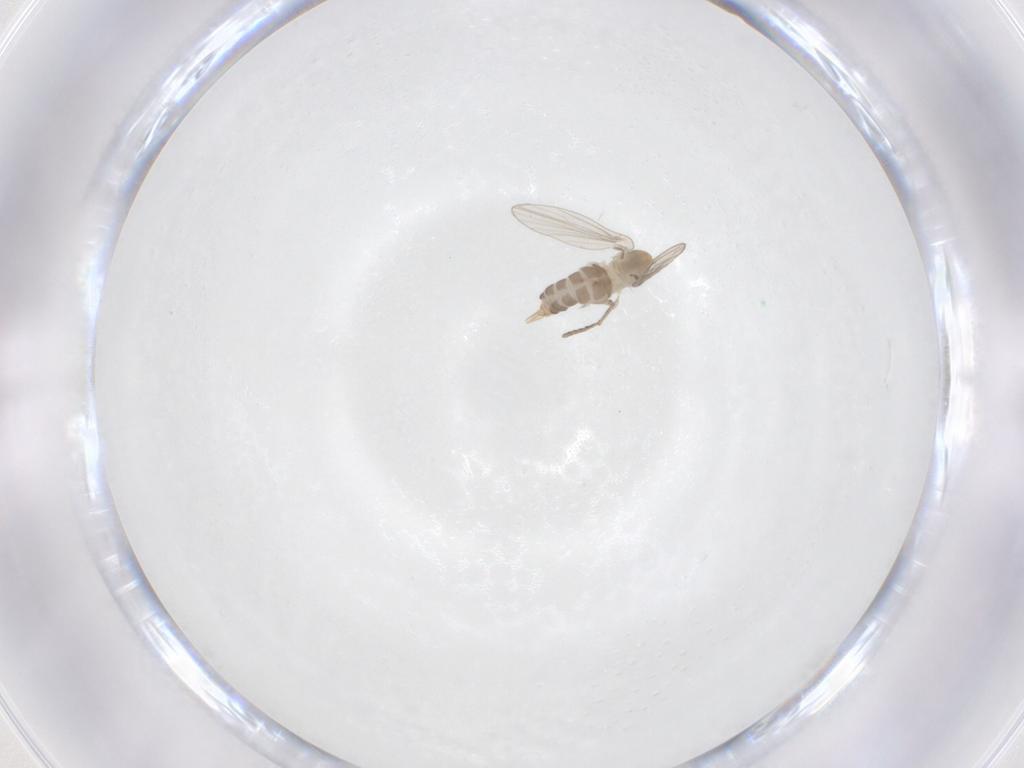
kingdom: Animalia
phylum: Arthropoda
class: Insecta
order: Diptera
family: Psychodidae
